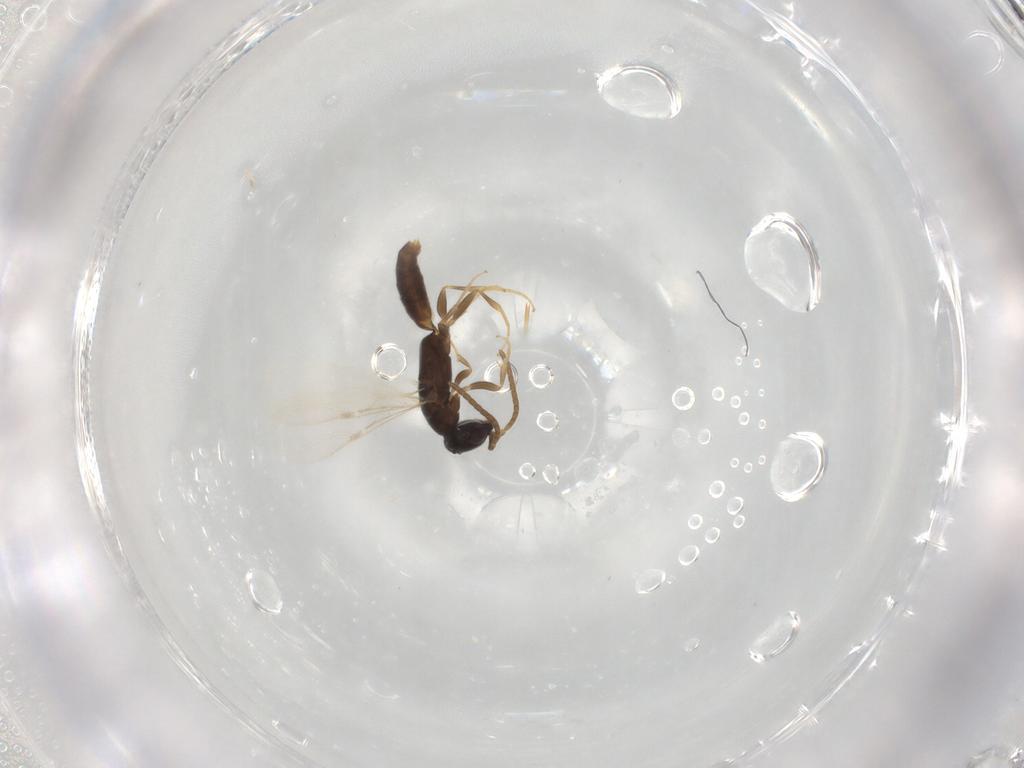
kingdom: Animalia
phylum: Arthropoda
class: Insecta
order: Hymenoptera
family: Bethylidae
